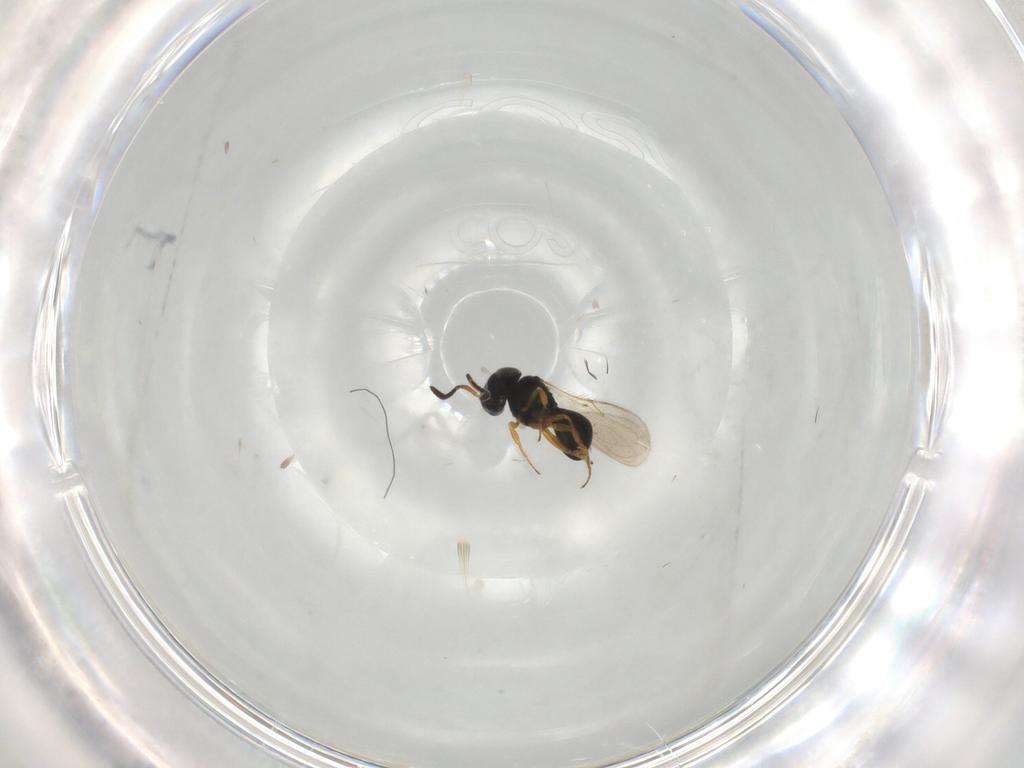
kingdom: Animalia
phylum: Arthropoda
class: Insecta
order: Hymenoptera
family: Scelionidae
